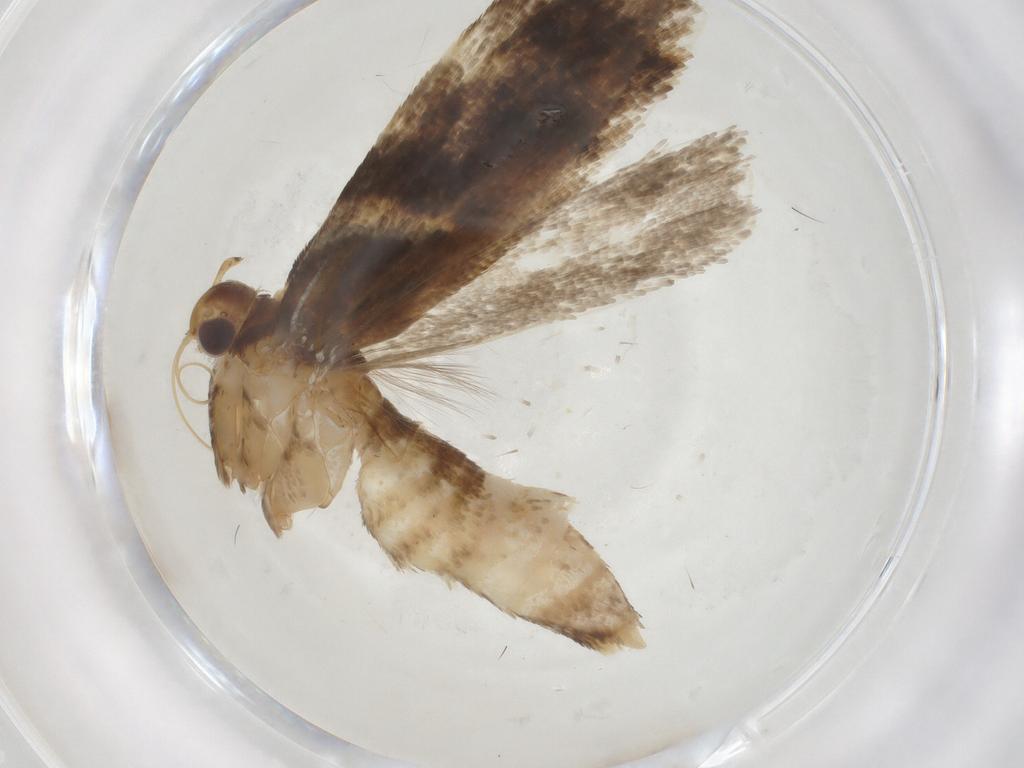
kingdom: Animalia
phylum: Arthropoda
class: Insecta
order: Lepidoptera
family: Gelechiidae
